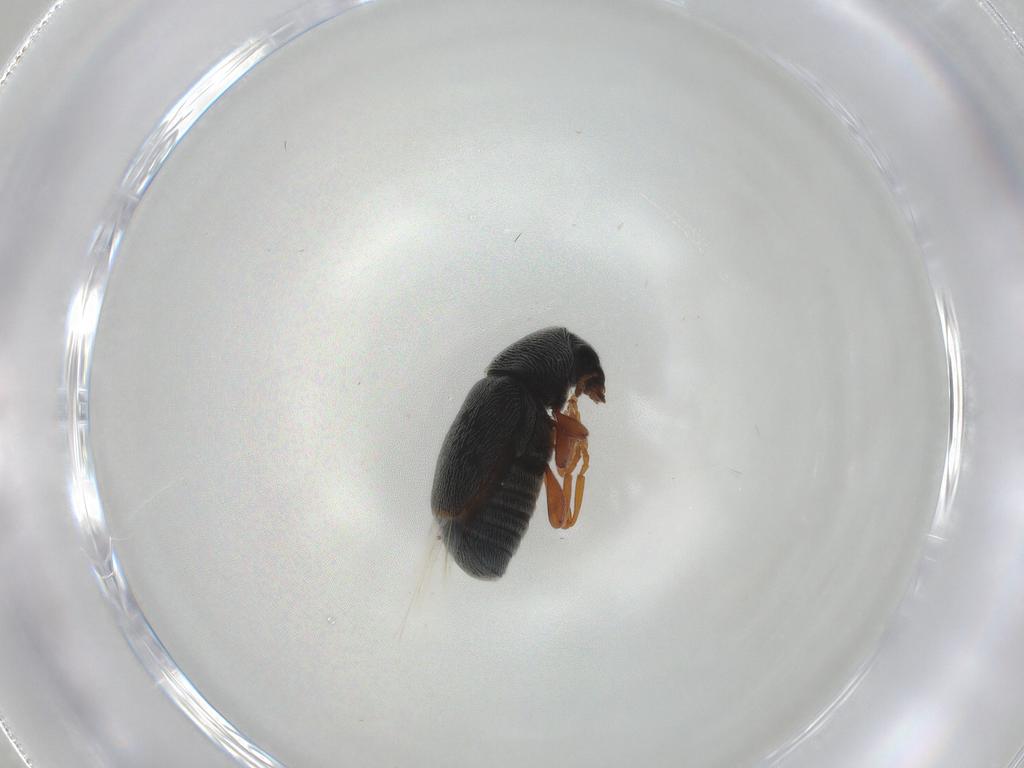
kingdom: Animalia
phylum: Arthropoda
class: Insecta
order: Coleoptera
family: Anthribidae
